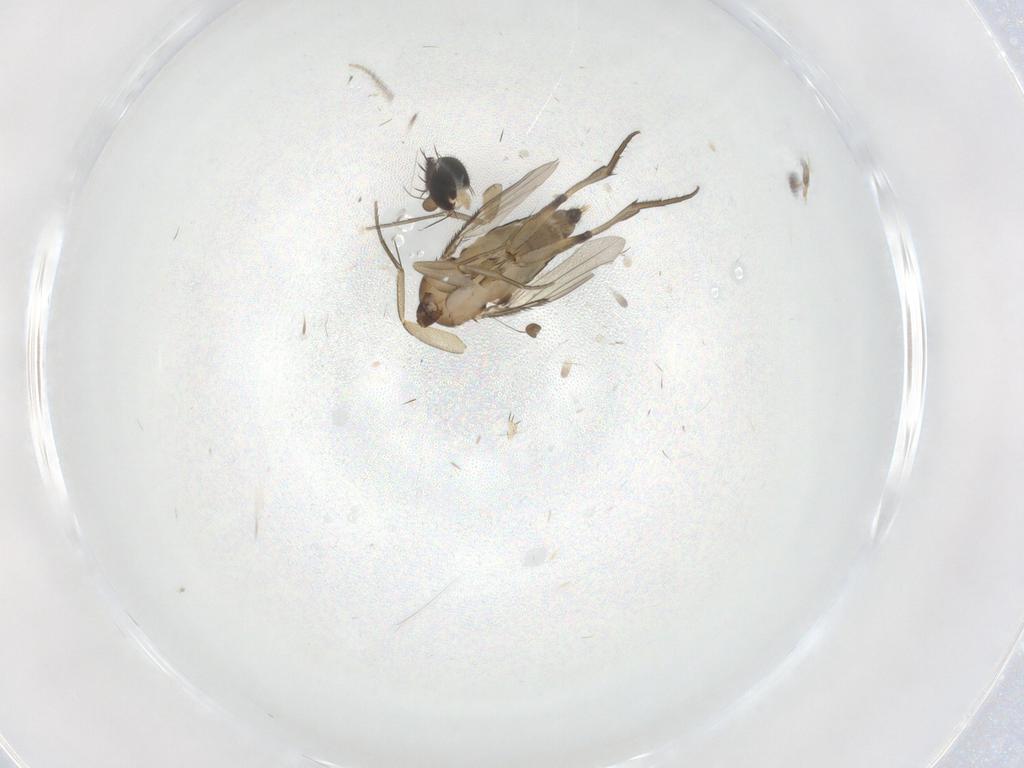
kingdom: Animalia
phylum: Arthropoda
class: Insecta
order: Diptera
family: Phoridae
